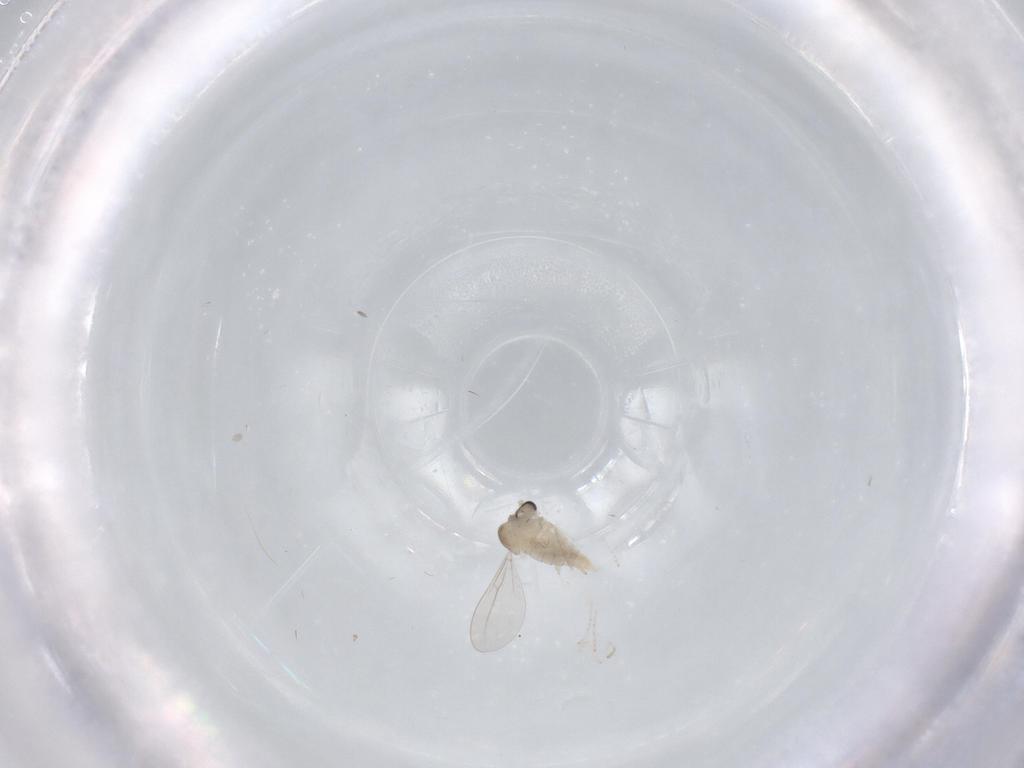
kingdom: Animalia
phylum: Arthropoda
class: Insecta
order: Diptera
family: Cecidomyiidae
